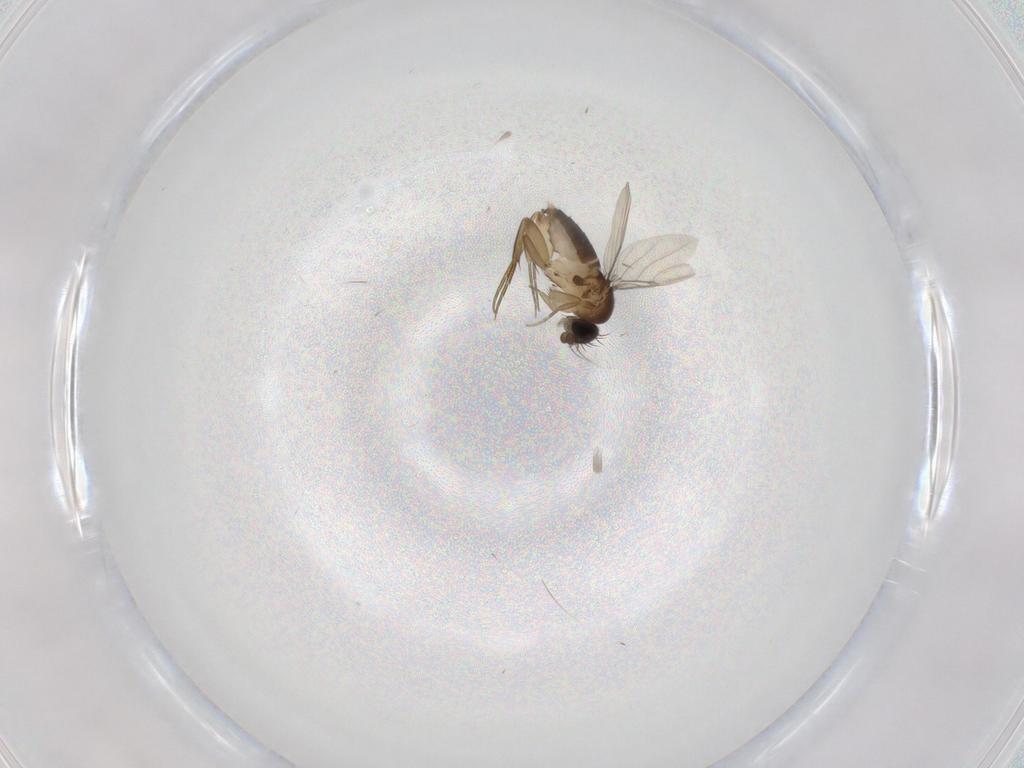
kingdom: Animalia
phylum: Arthropoda
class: Insecta
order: Diptera
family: Phoridae
